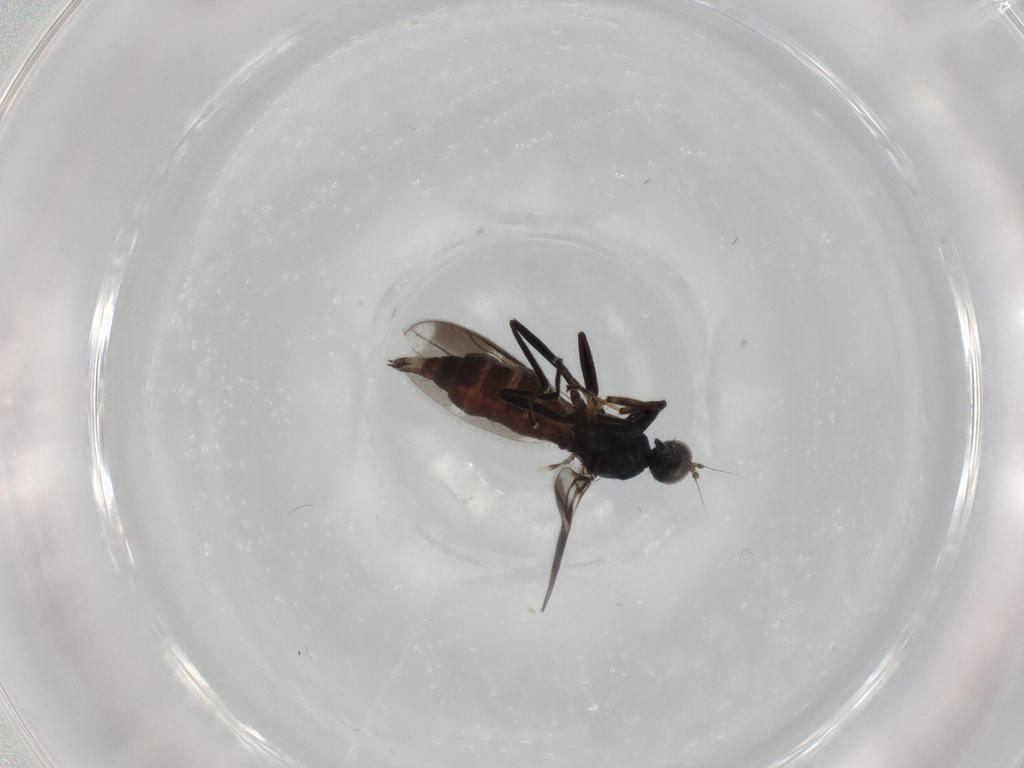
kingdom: Animalia
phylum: Arthropoda
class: Insecta
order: Diptera
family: Hybotidae
